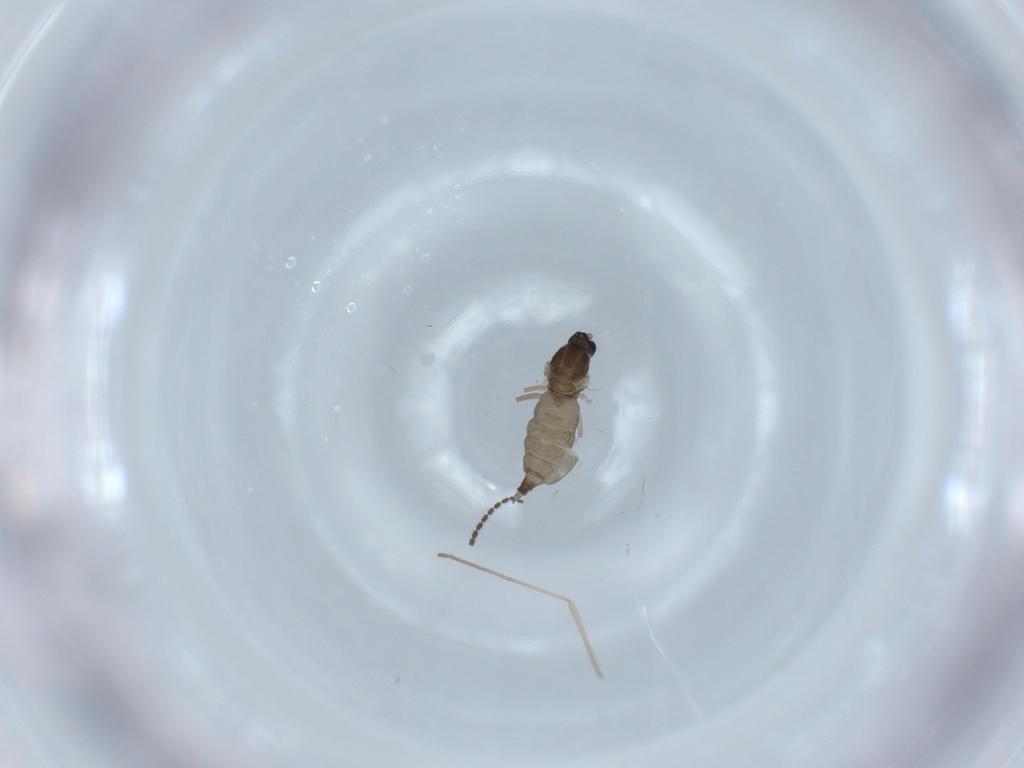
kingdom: Animalia
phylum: Arthropoda
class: Insecta
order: Diptera
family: Cecidomyiidae
